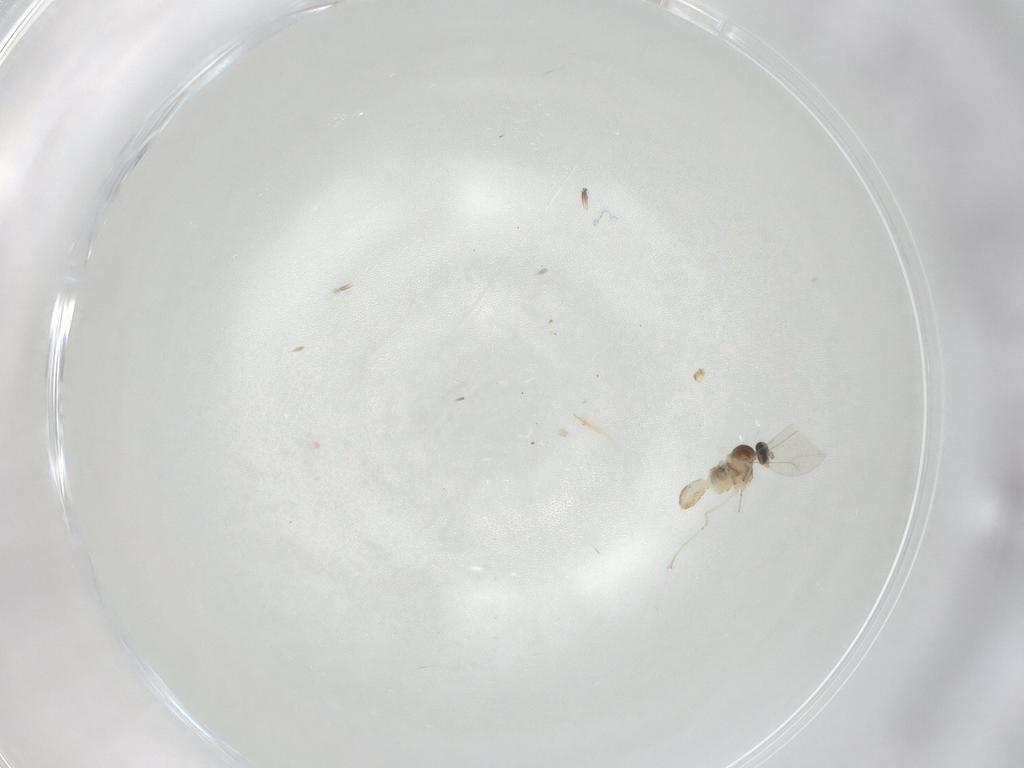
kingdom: Animalia
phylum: Arthropoda
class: Insecta
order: Diptera
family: Cecidomyiidae
